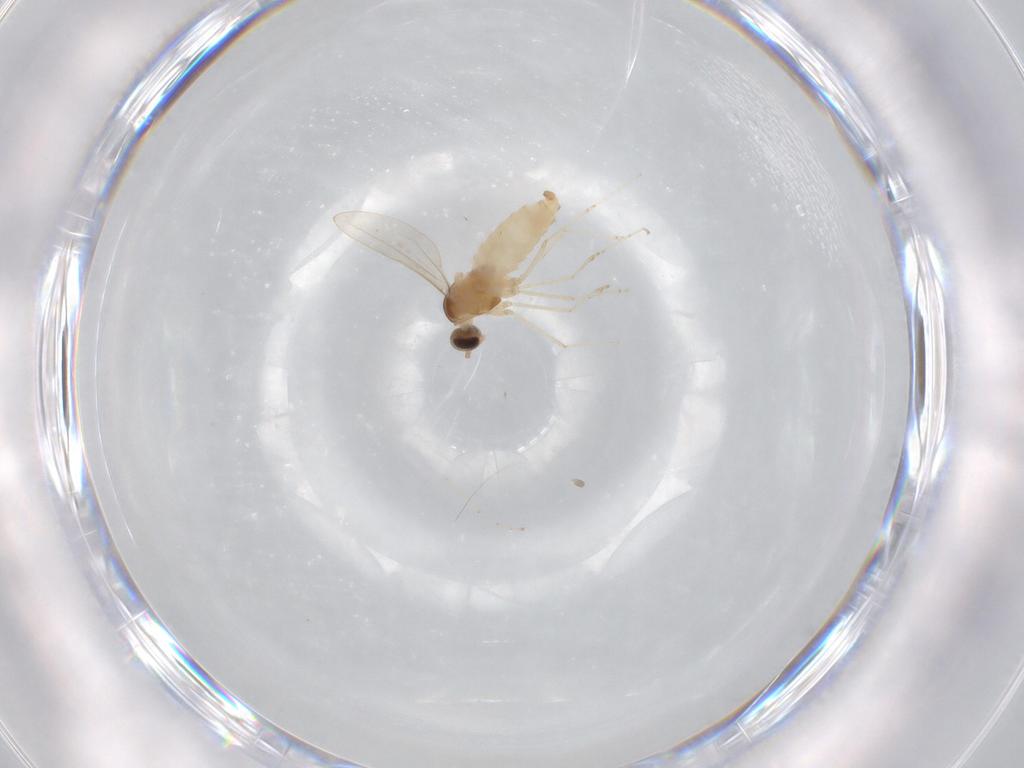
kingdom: Animalia
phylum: Arthropoda
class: Insecta
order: Diptera
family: Cecidomyiidae
